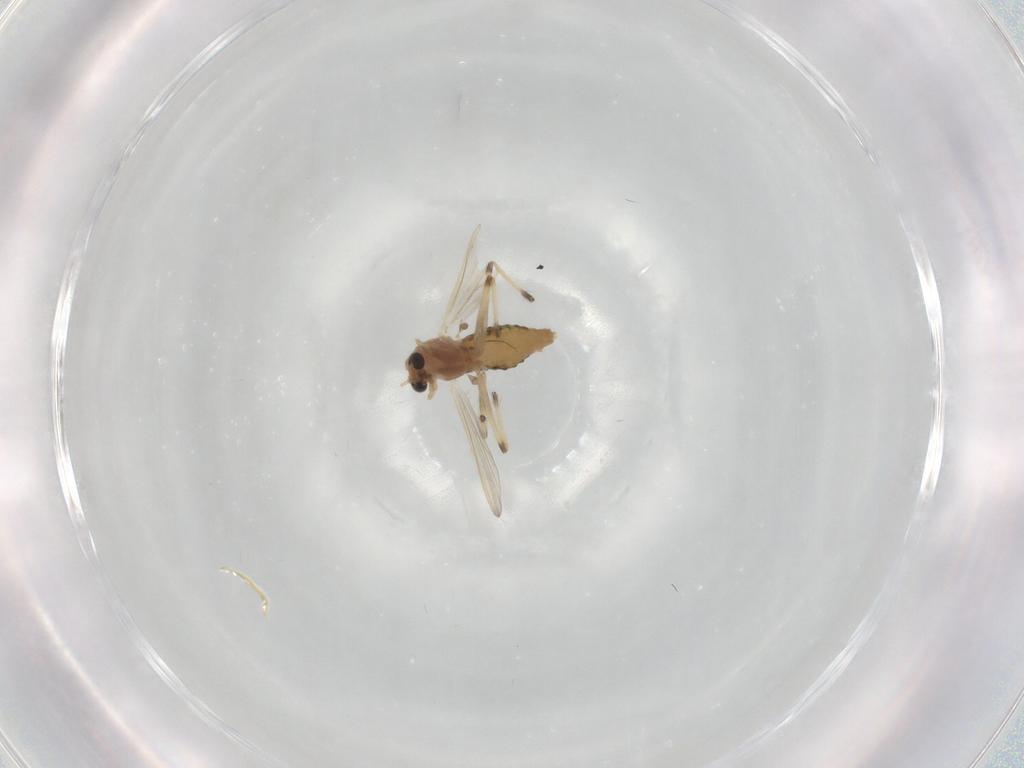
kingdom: Animalia
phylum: Arthropoda
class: Insecta
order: Diptera
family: Chironomidae
